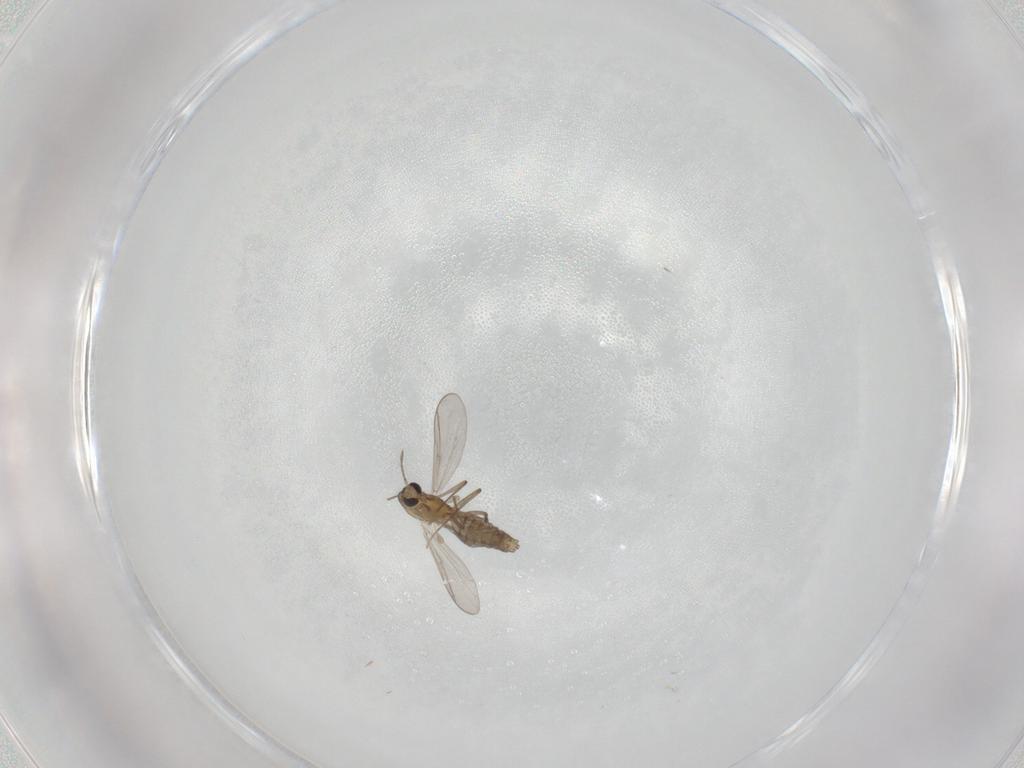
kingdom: Animalia
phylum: Arthropoda
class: Insecta
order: Diptera
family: Chironomidae
